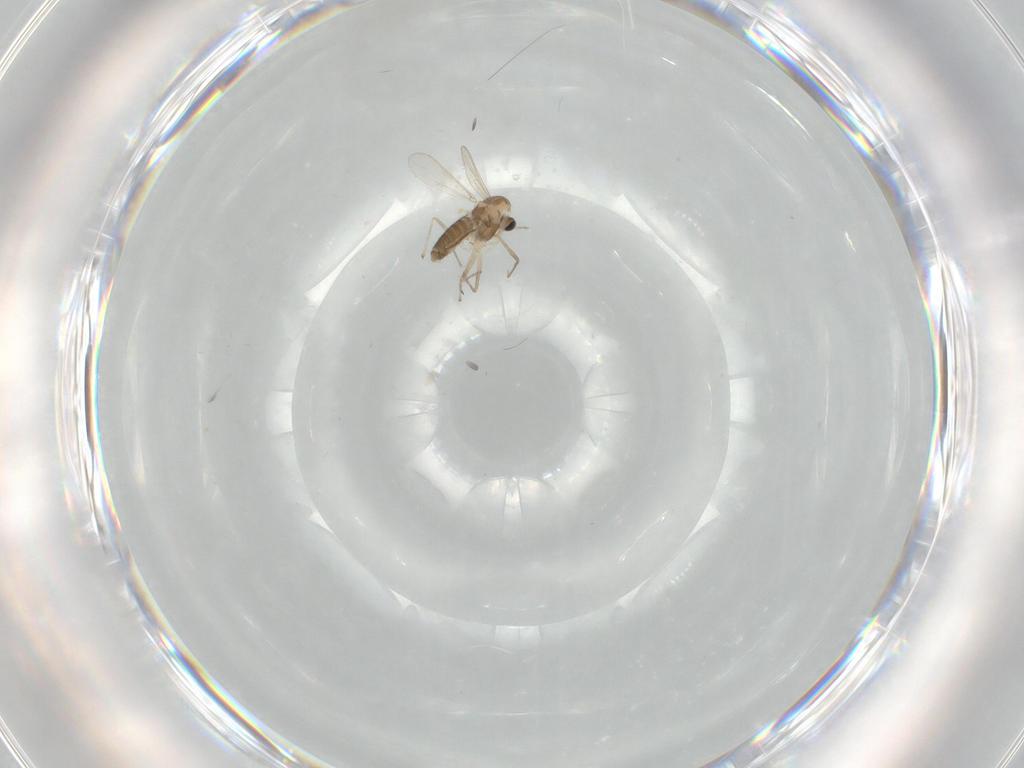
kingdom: Animalia
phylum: Arthropoda
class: Insecta
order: Diptera
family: Chironomidae
